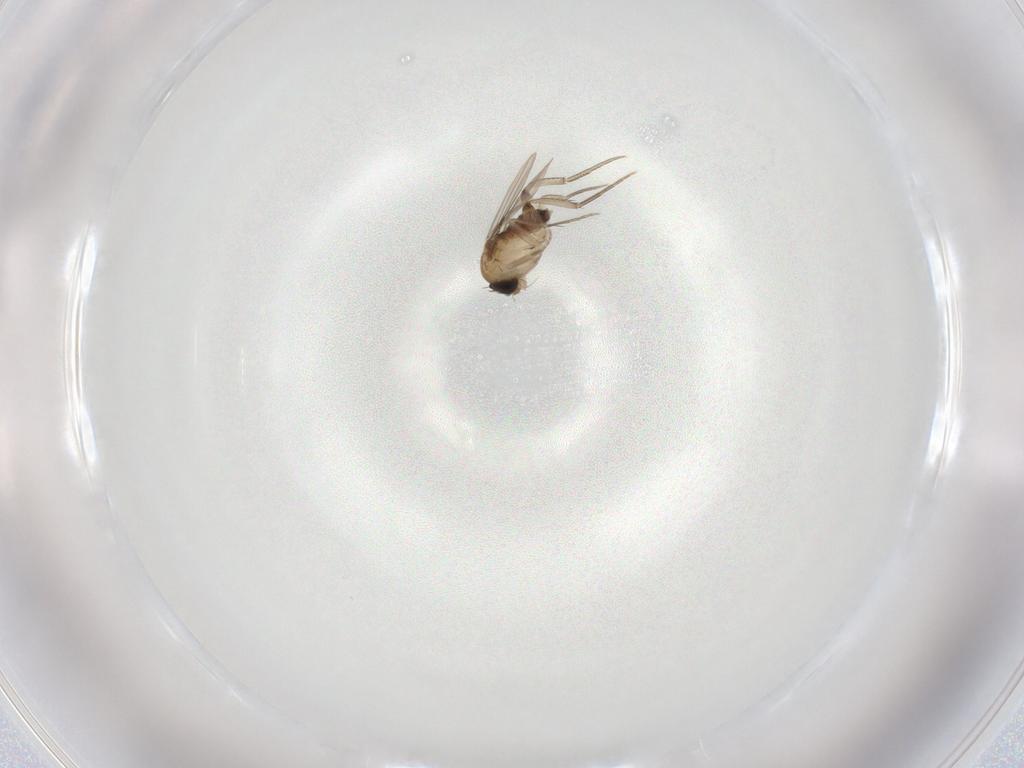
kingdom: Animalia
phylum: Arthropoda
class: Insecta
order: Diptera
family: Phoridae
